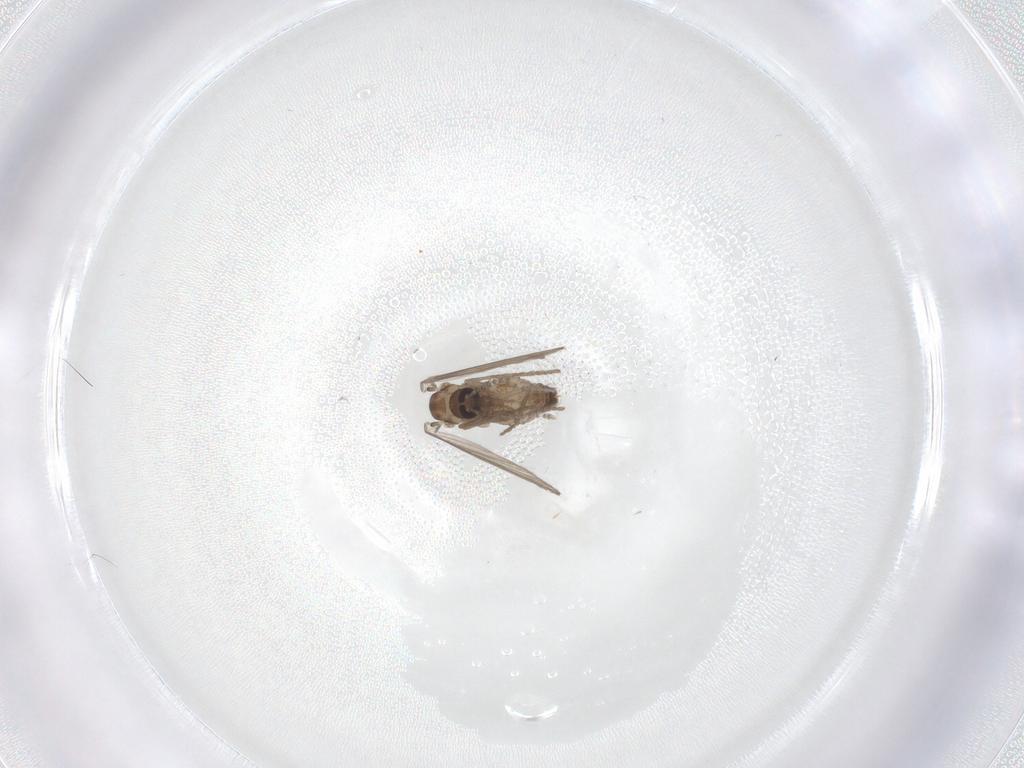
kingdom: Animalia
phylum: Arthropoda
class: Insecta
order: Diptera
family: Psychodidae
